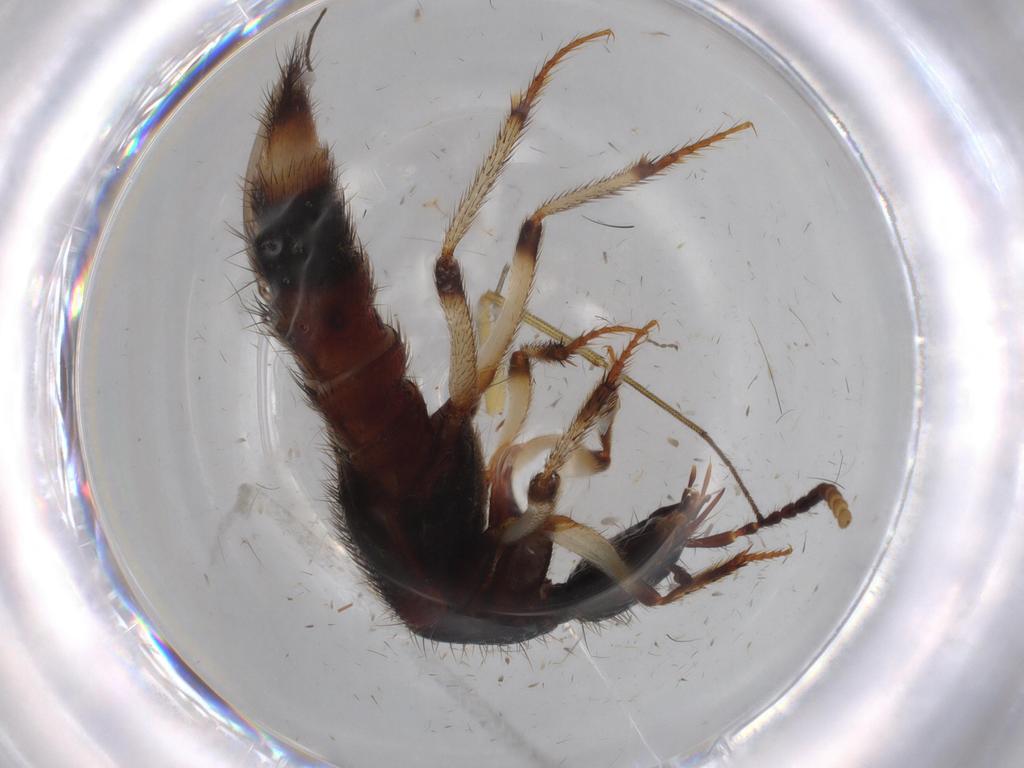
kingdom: Animalia
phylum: Arthropoda
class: Insecta
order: Coleoptera
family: Staphylinidae
